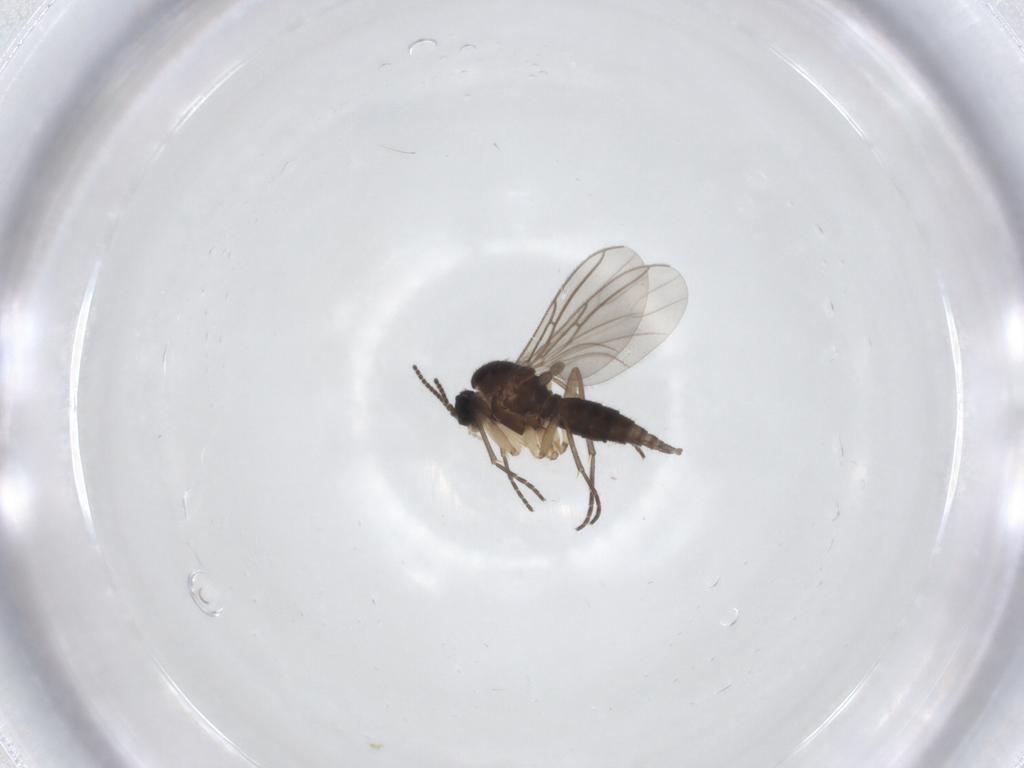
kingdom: Animalia
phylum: Arthropoda
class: Insecta
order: Diptera
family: Sciaridae
